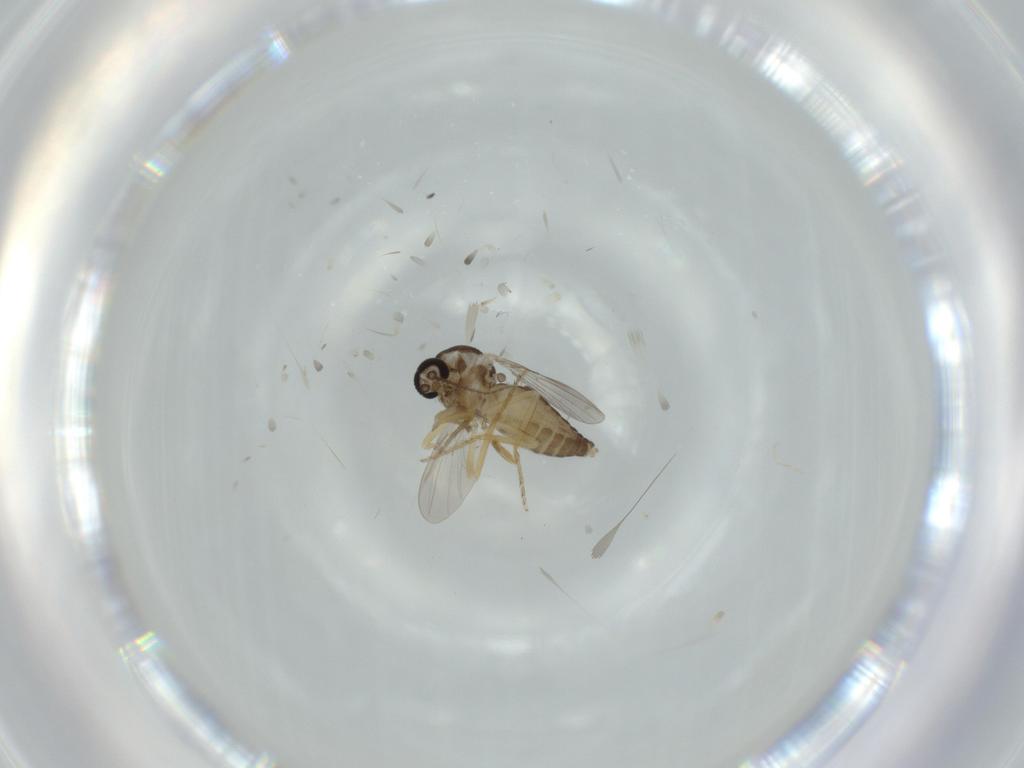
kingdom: Animalia
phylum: Arthropoda
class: Insecta
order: Diptera
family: Ceratopogonidae
